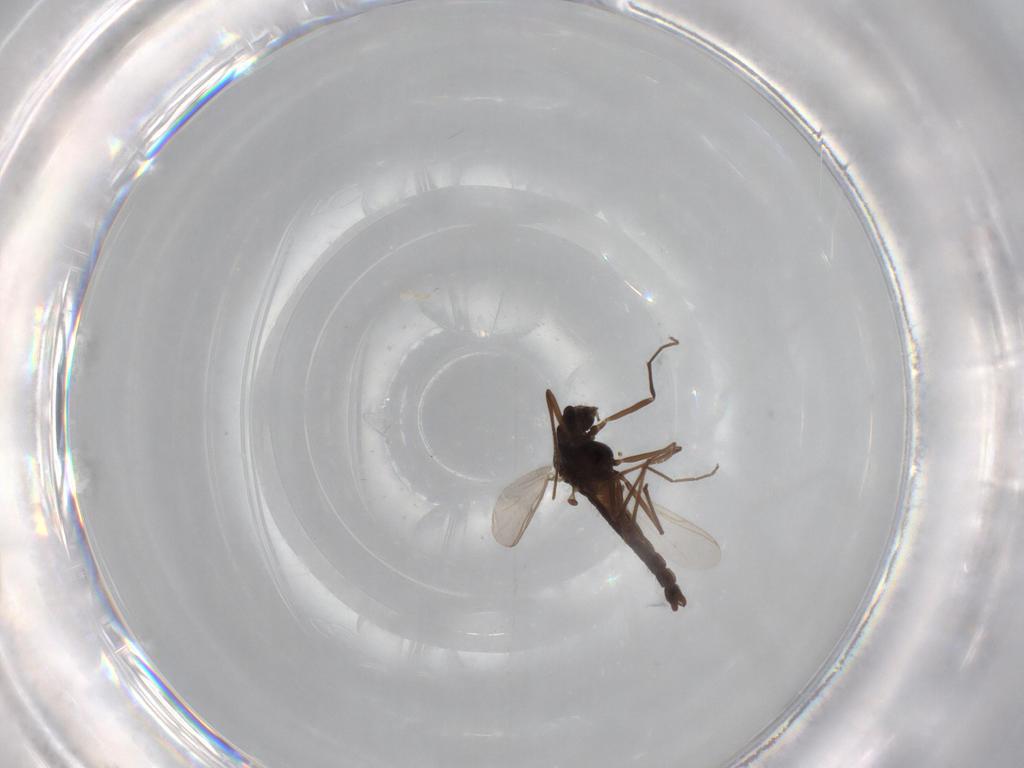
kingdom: Animalia
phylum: Arthropoda
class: Insecta
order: Diptera
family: Chironomidae
